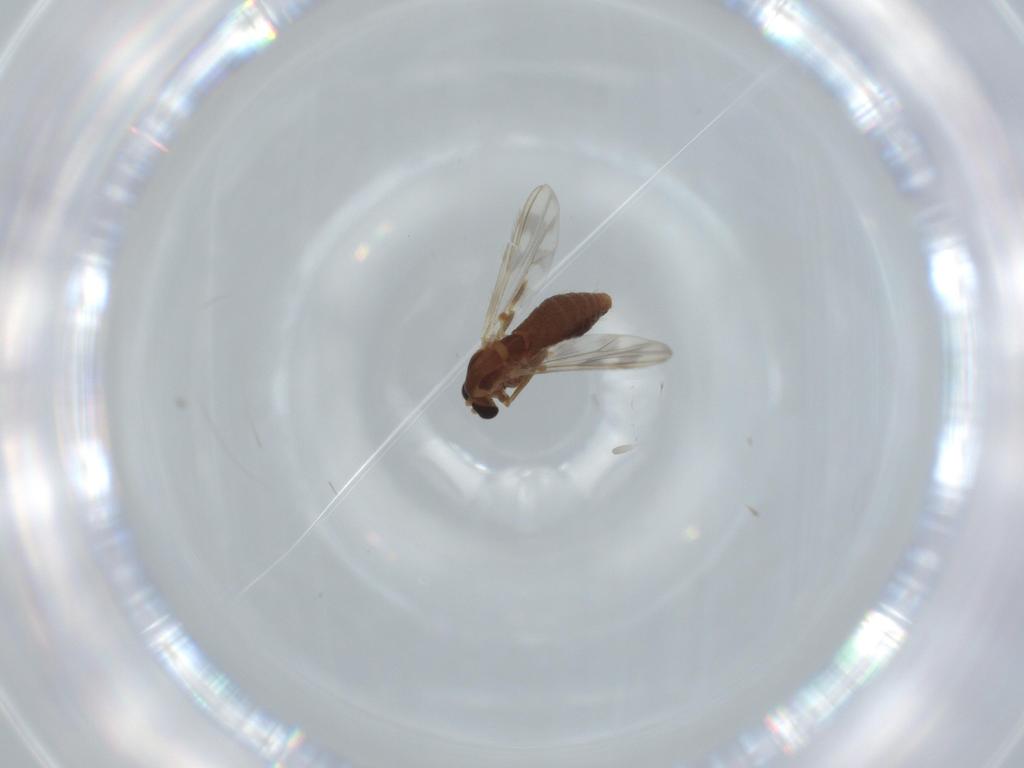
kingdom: Animalia
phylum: Arthropoda
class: Insecta
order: Diptera
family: Chironomidae
